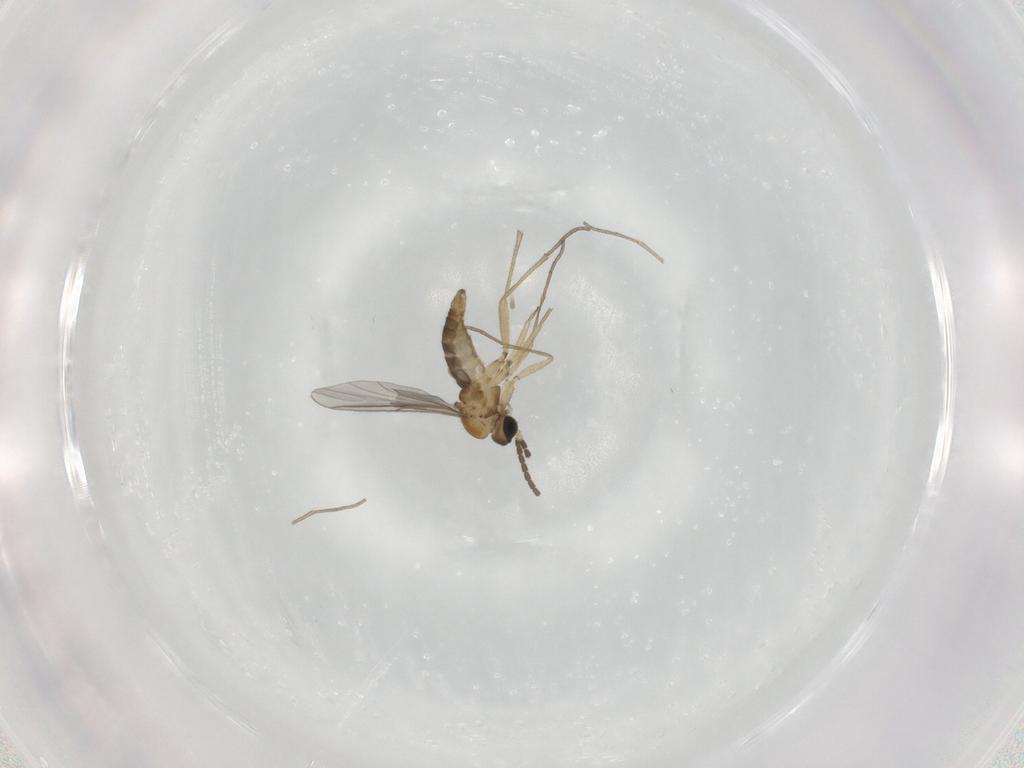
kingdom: Animalia
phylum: Arthropoda
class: Insecta
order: Diptera
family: Sciaridae
